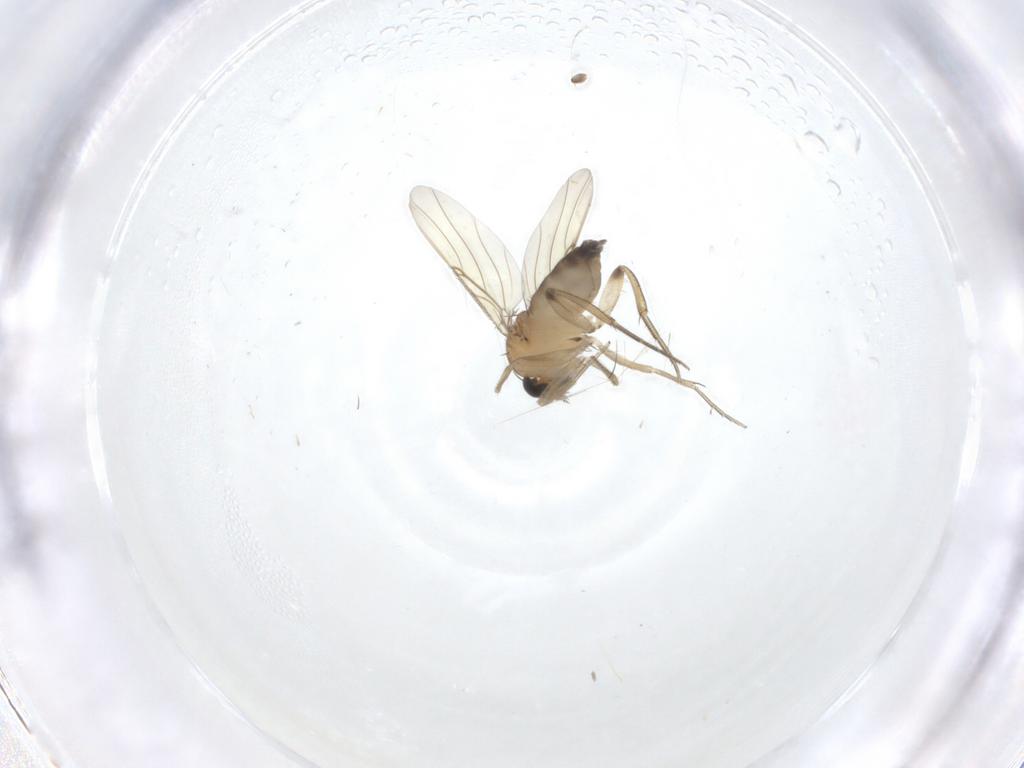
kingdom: Animalia
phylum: Arthropoda
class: Insecta
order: Diptera
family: Phoridae
